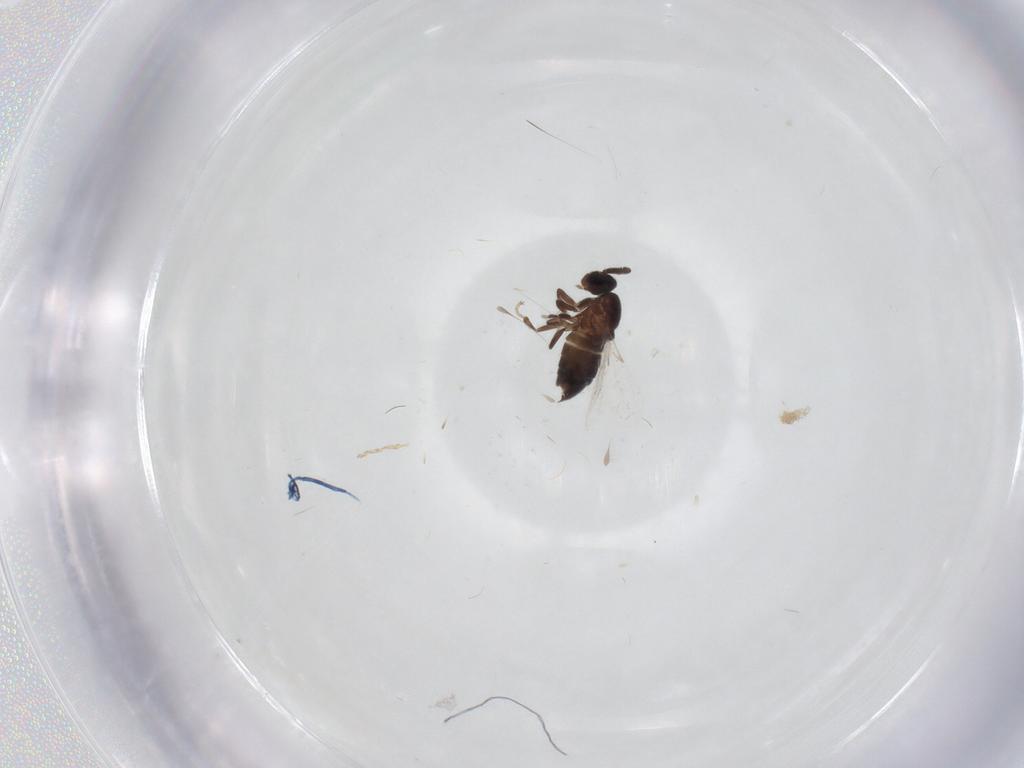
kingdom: Animalia
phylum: Arthropoda
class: Insecta
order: Diptera
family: Scatopsidae
